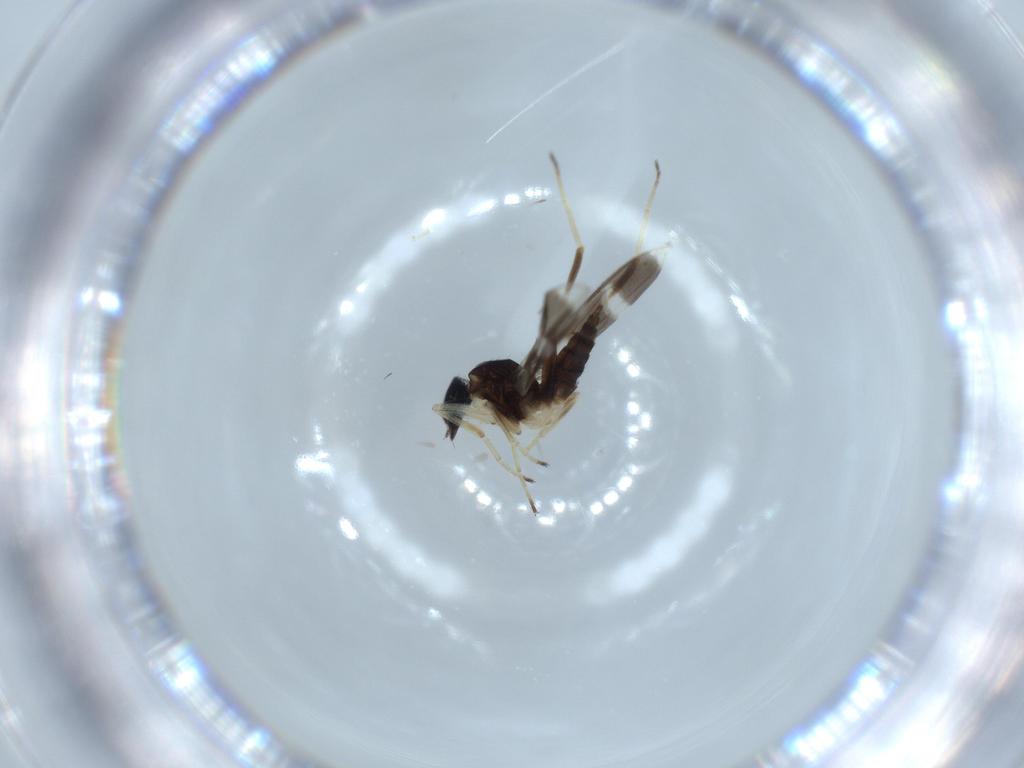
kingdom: Animalia
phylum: Arthropoda
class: Insecta
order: Diptera
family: Hybotidae
